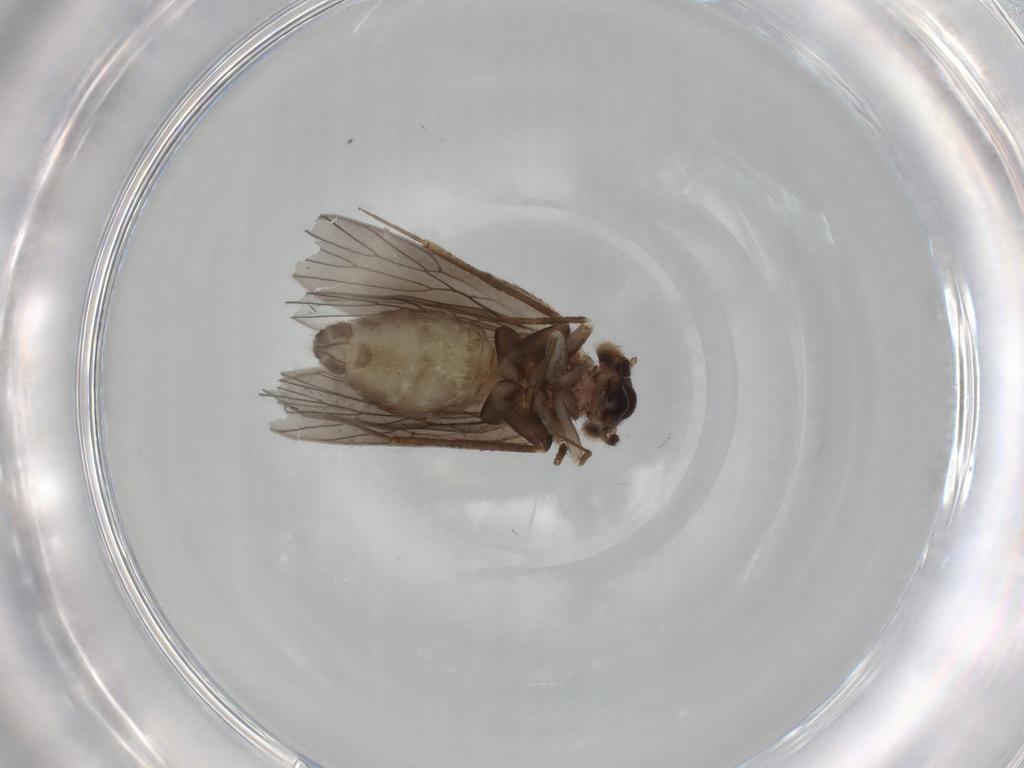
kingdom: Animalia
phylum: Arthropoda
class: Insecta
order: Psocodea
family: Lepidopsocidae
